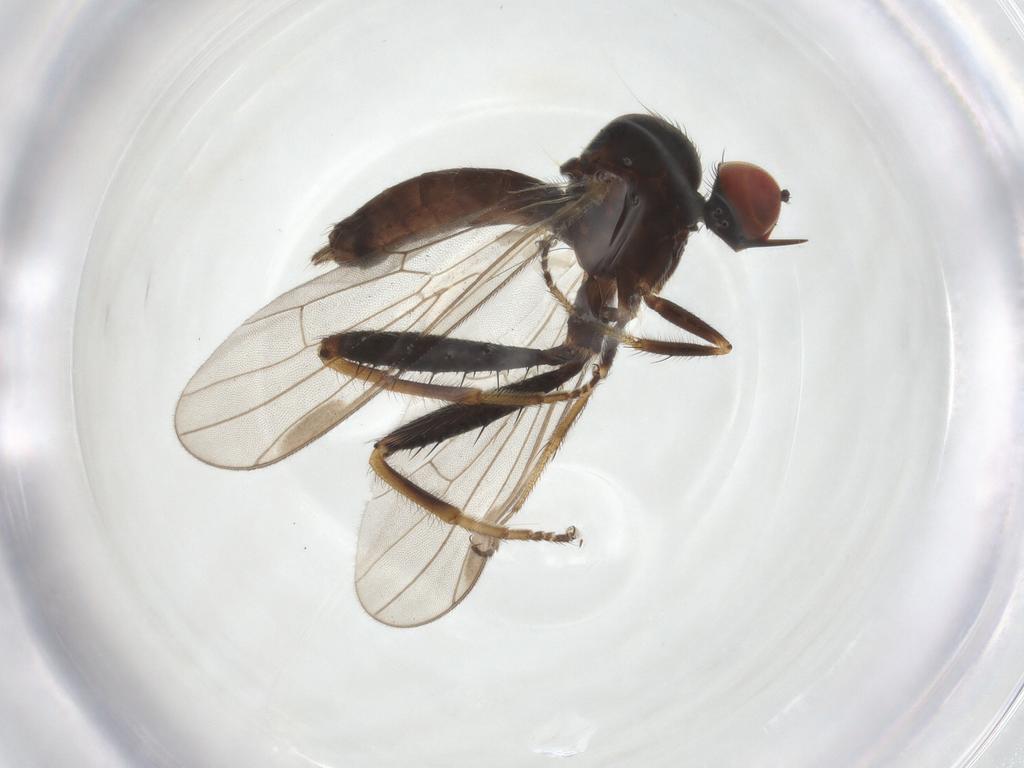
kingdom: Animalia
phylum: Arthropoda
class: Insecta
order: Diptera
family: Hybotidae
